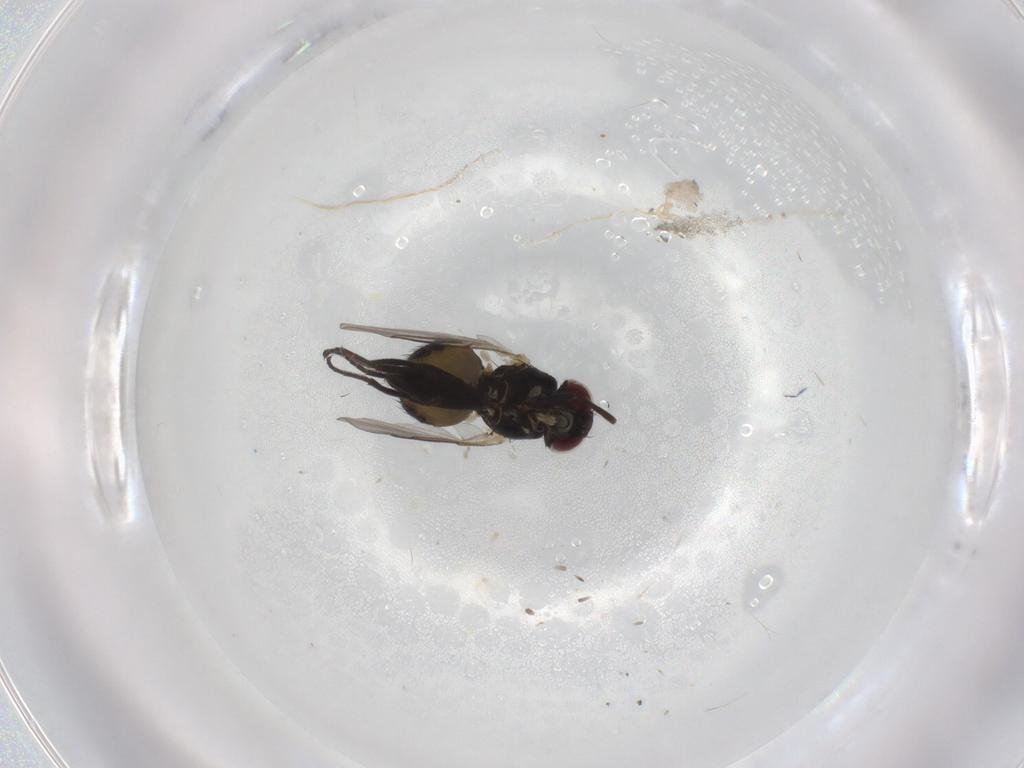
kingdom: Animalia
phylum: Arthropoda
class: Insecta
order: Diptera
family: Agromyzidae
